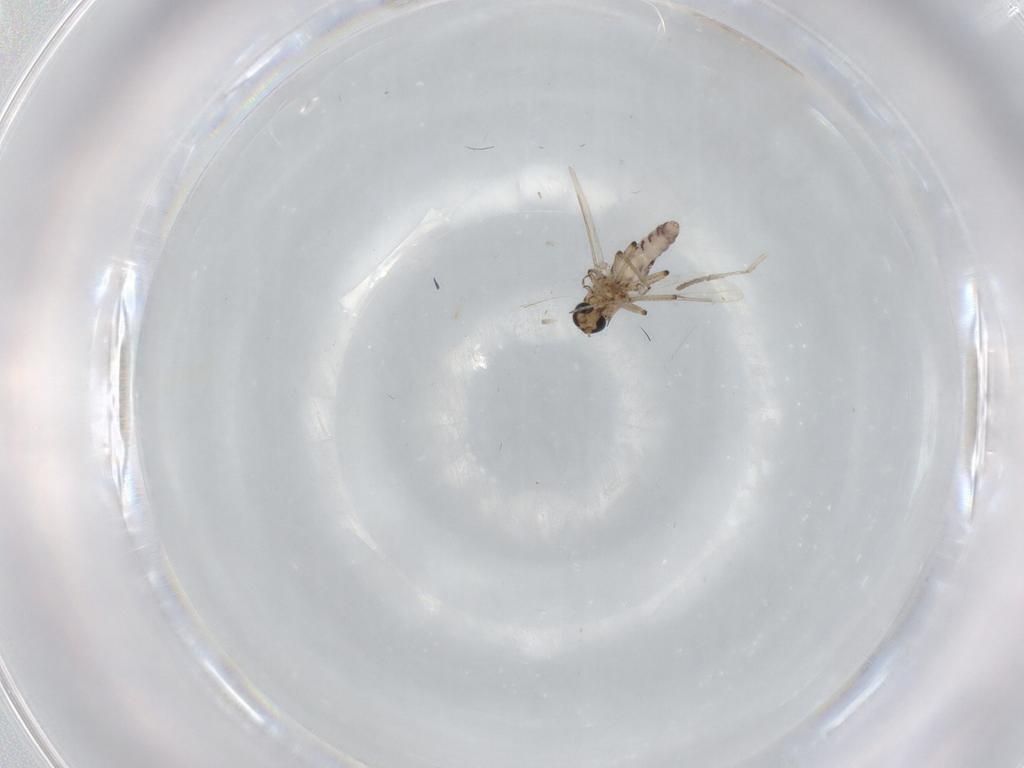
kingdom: Animalia
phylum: Arthropoda
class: Insecta
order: Diptera
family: Ceratopogonidae
